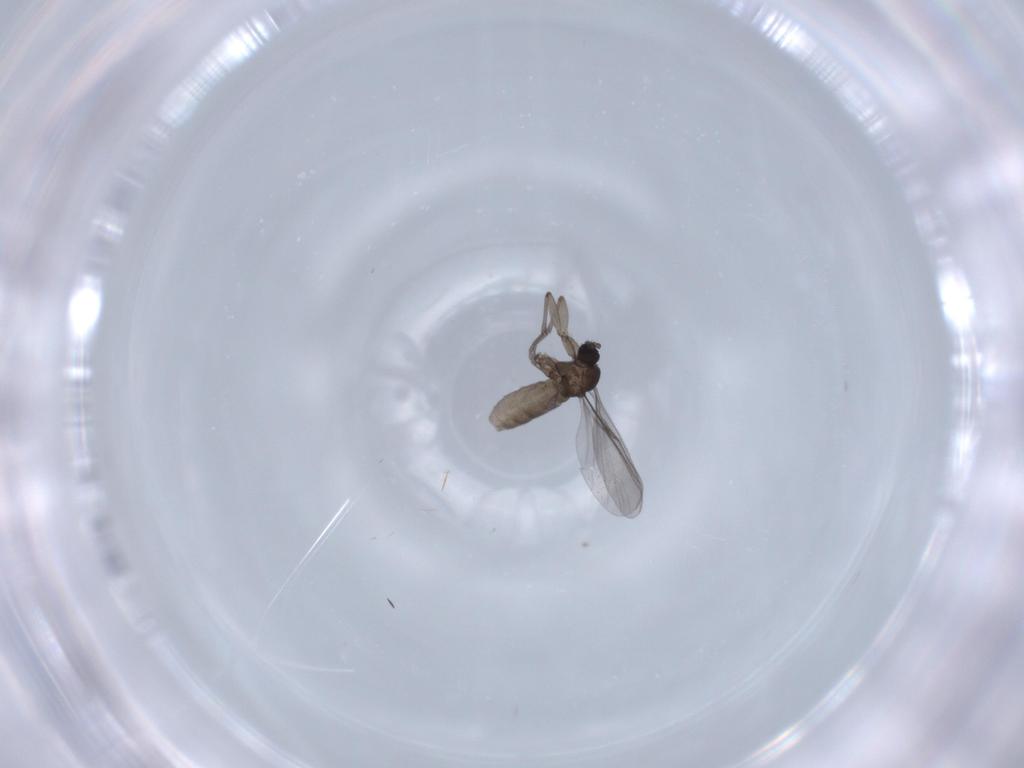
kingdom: Animalia
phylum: Arthropoda
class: Insecta
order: Diptera
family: Sciaridae
